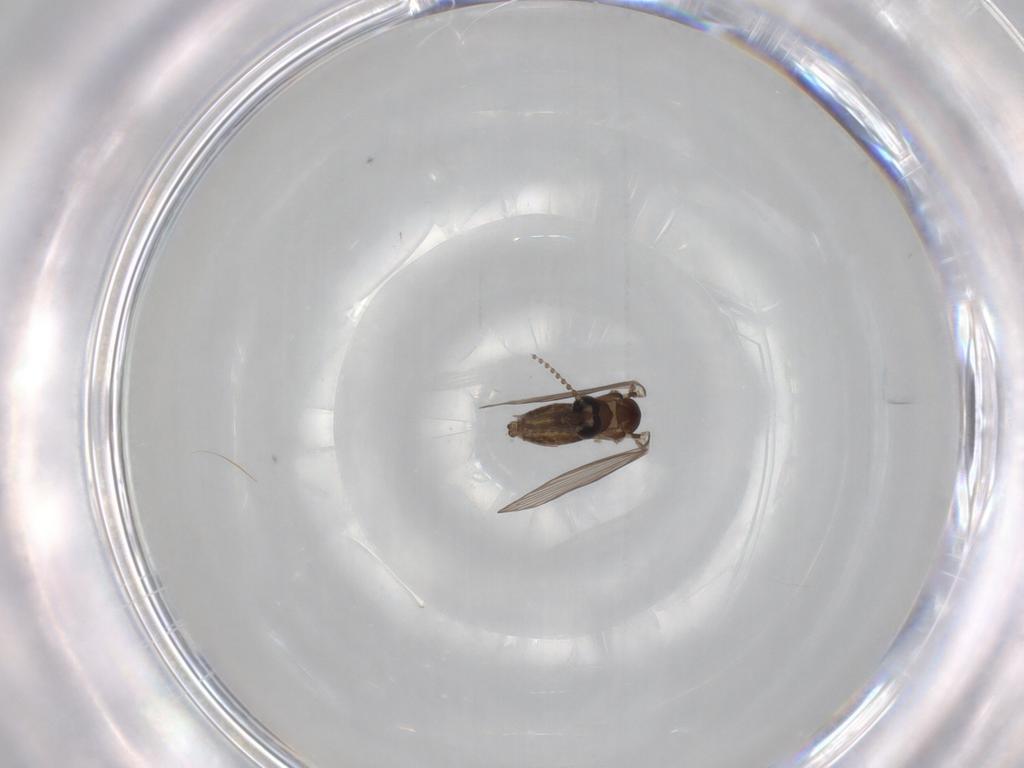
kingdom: Animalia
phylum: Arthropoda
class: Insecta
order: Diptera
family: Psychodidae
